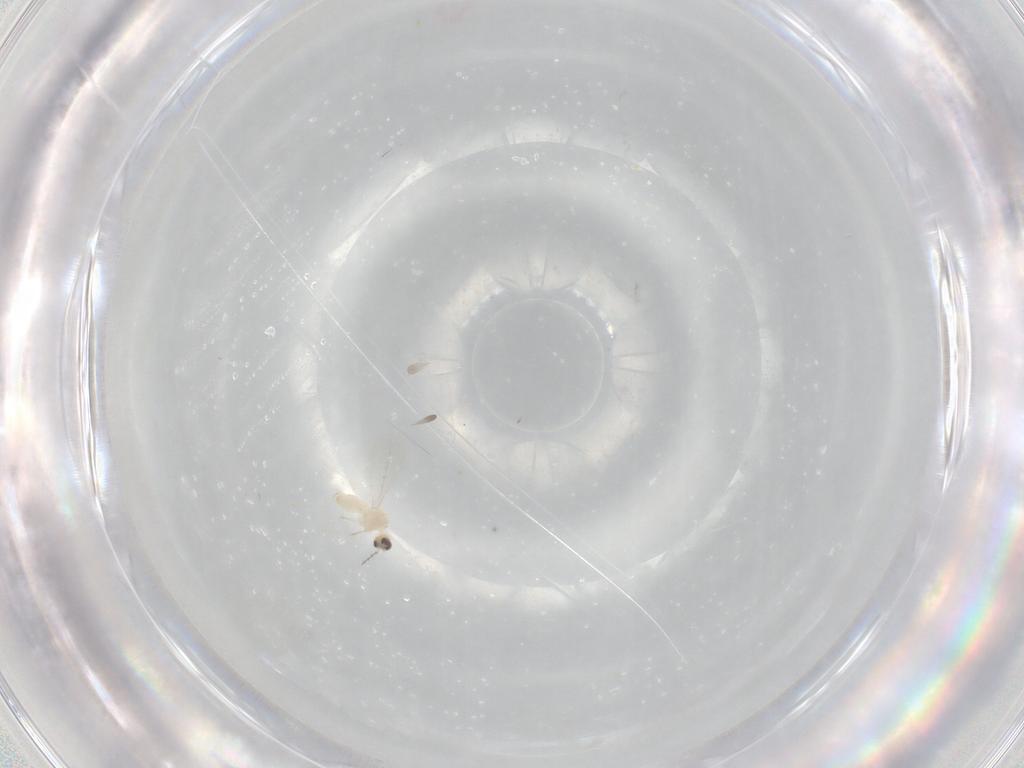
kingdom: Animalia
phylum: Arthropoda
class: Insecta
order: Diptera
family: Cecidomyiidae
